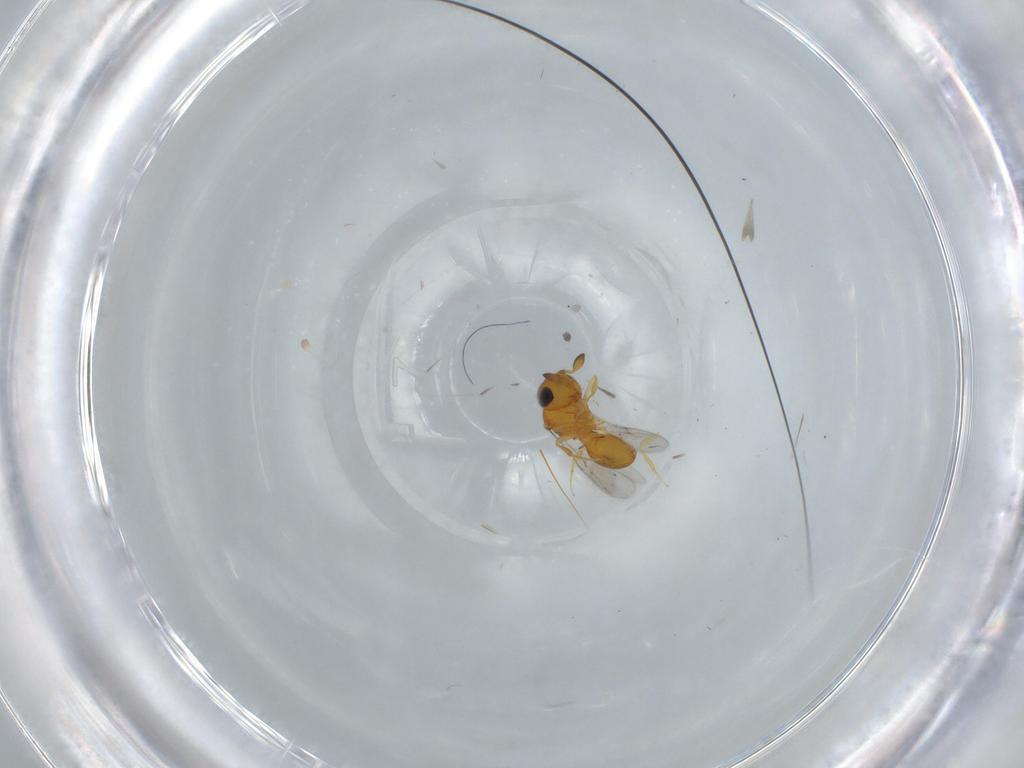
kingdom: Animalia
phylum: Arthropoda
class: Insecta
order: Hymenoptera
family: Scelionidae
